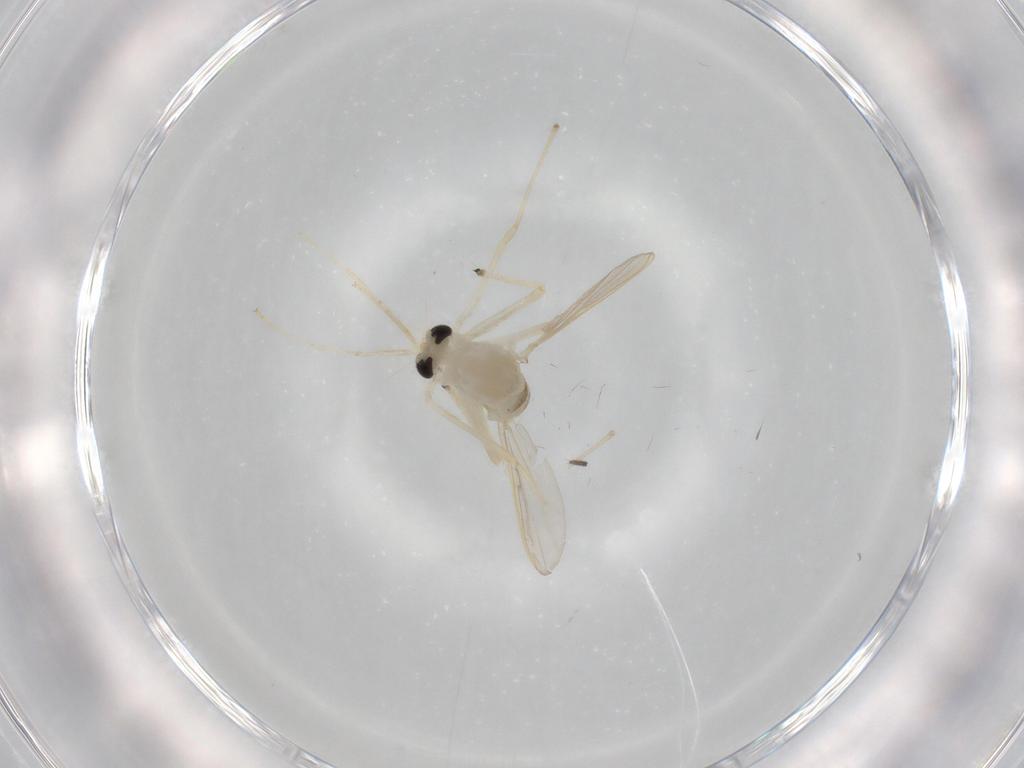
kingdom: Animalia
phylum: Arthropoda
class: Insecta
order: Diptera
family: Chironomidae
